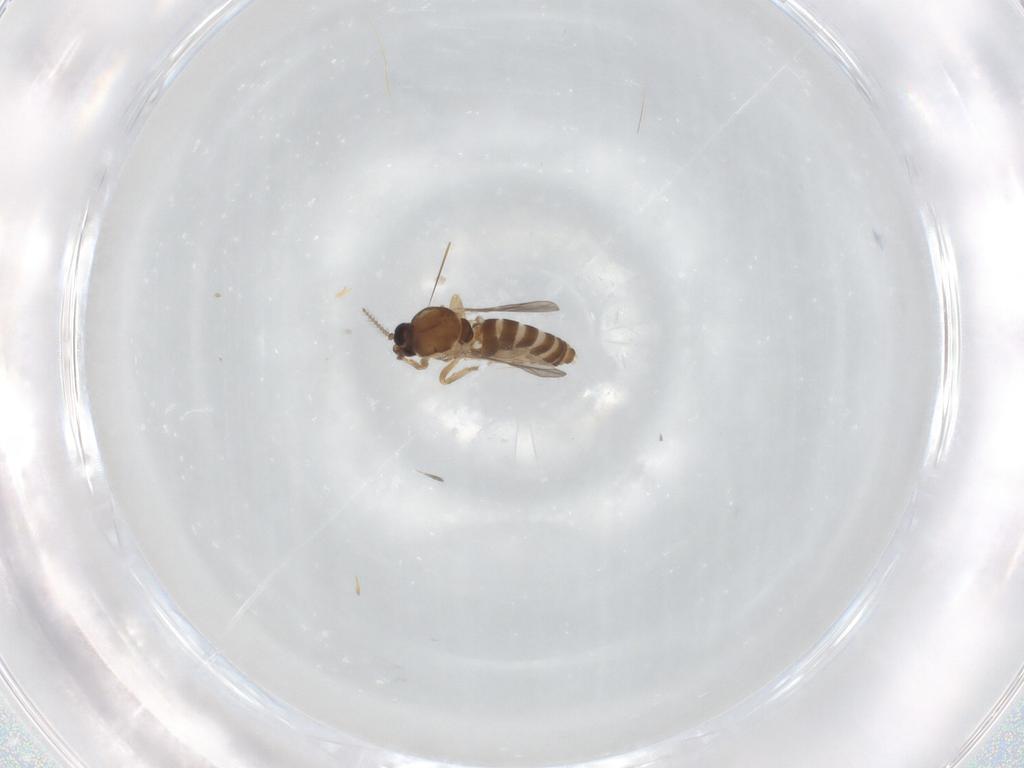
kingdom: Animalia
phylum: Arthropoda
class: Insecta
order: Diptera
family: Ceratopogonidae
